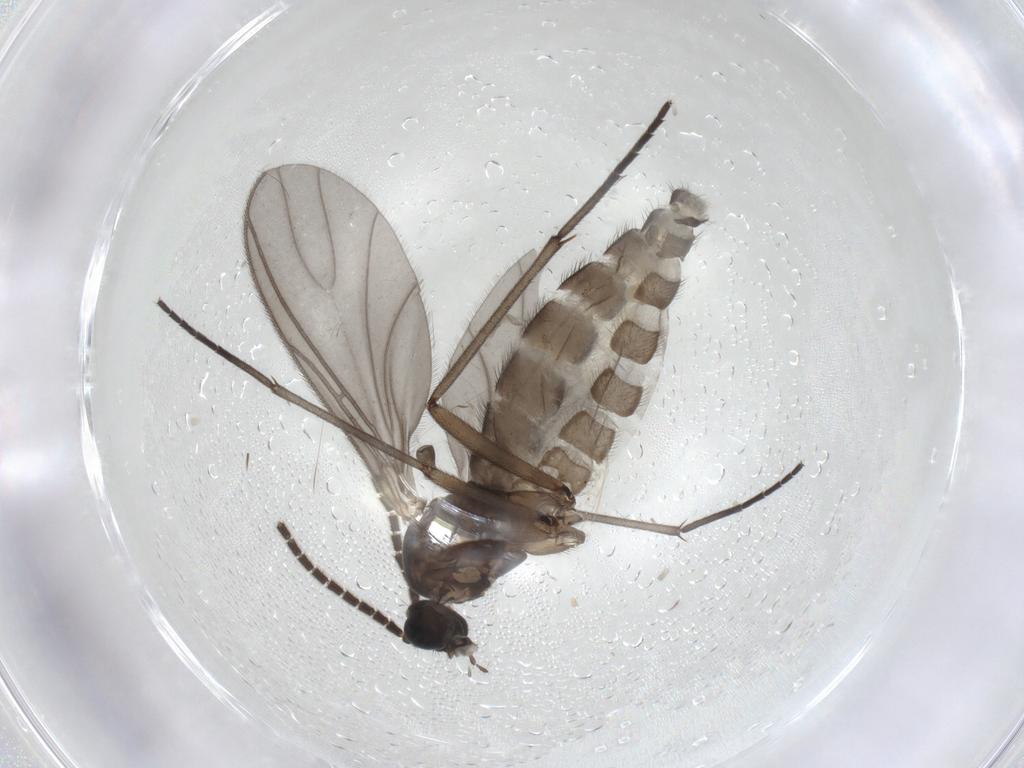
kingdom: Animalia
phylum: Arthropoda
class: Insecta
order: Diptera
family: Sciaridae
